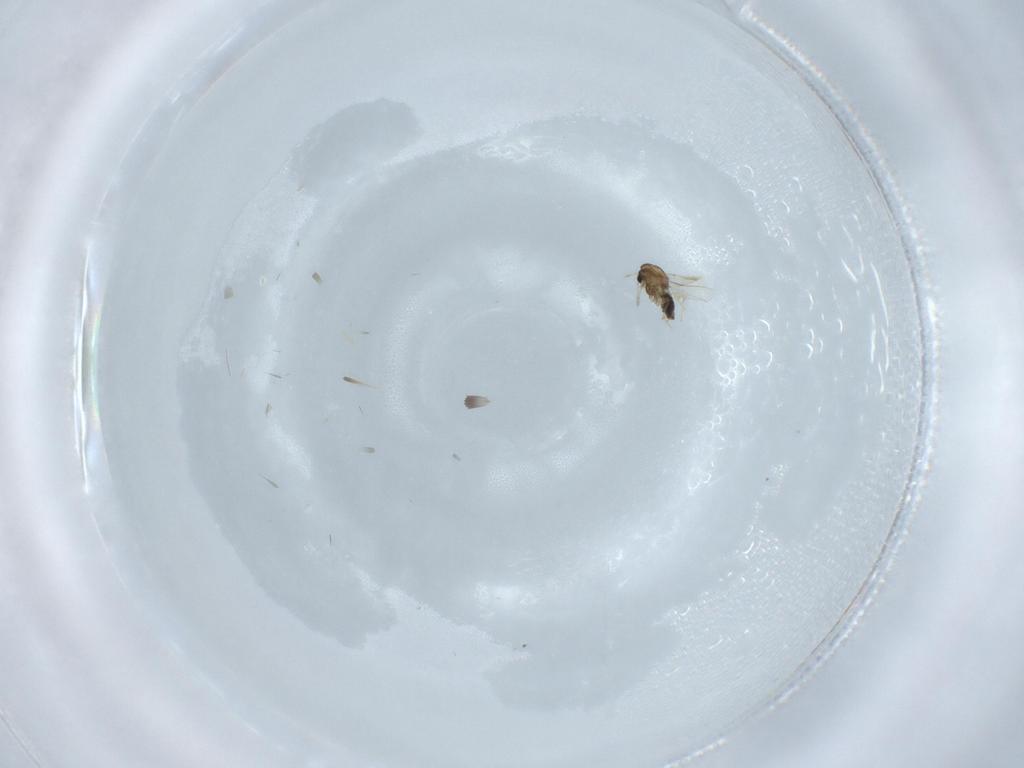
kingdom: Animalia
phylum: Arthropoda
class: Insecta
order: Diptera
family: Chironomidae
